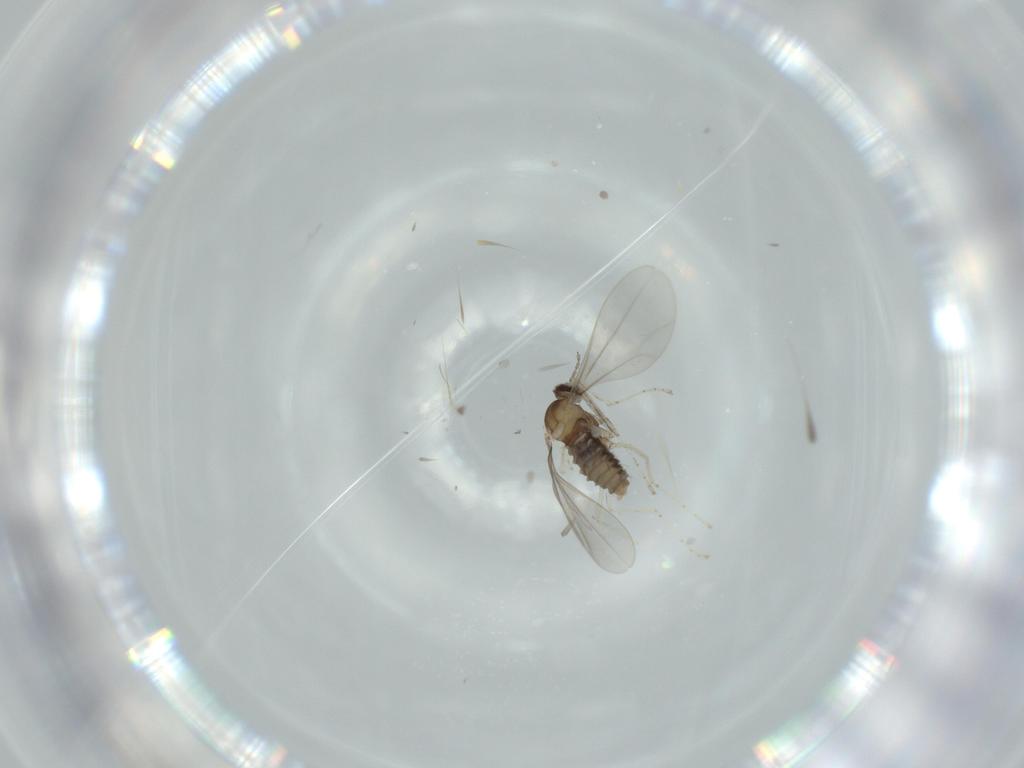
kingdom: Animalia
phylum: Arthropoda
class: Insecta
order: Diptera
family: Cecidomyiidae
